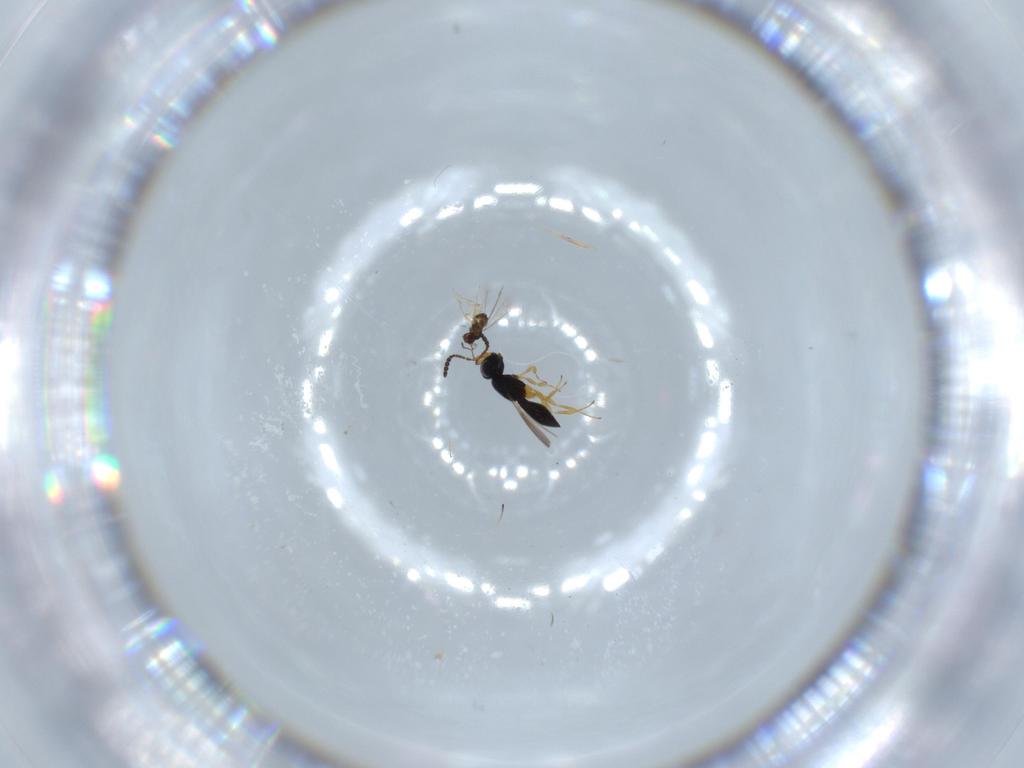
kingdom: Animalia
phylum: Arthropoda
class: Insecta
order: Hymenoptera
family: Scelionidae
